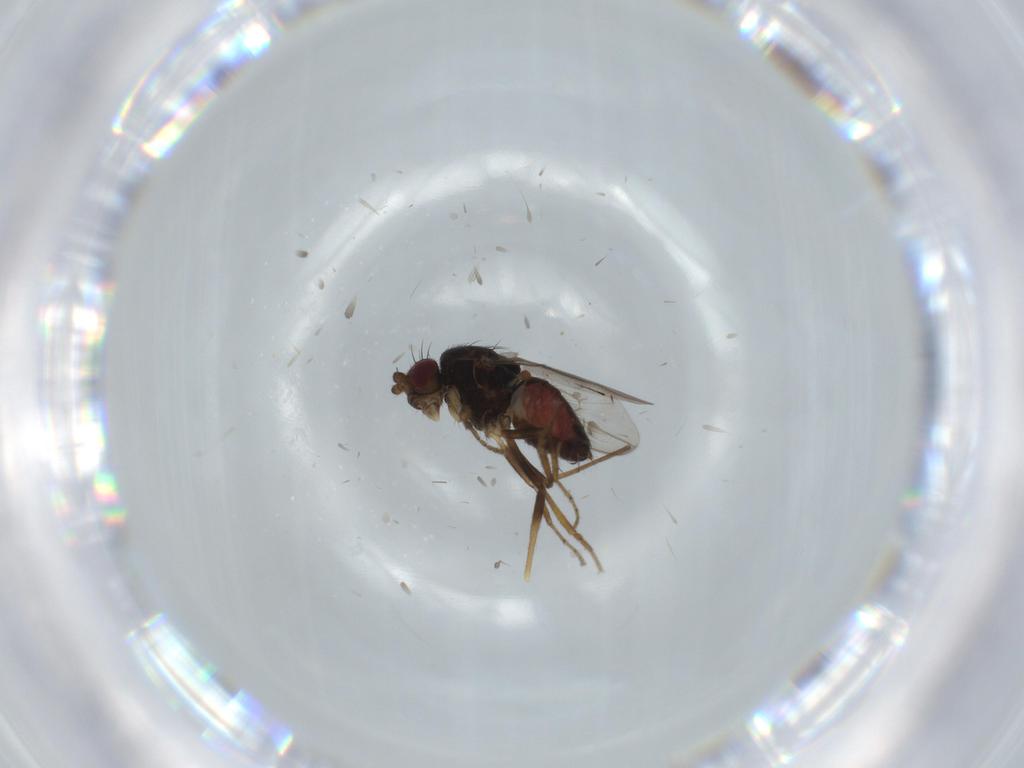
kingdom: Animalia
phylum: Arthropoda
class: Insecta
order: Diptera
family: Sphaeroceridae
